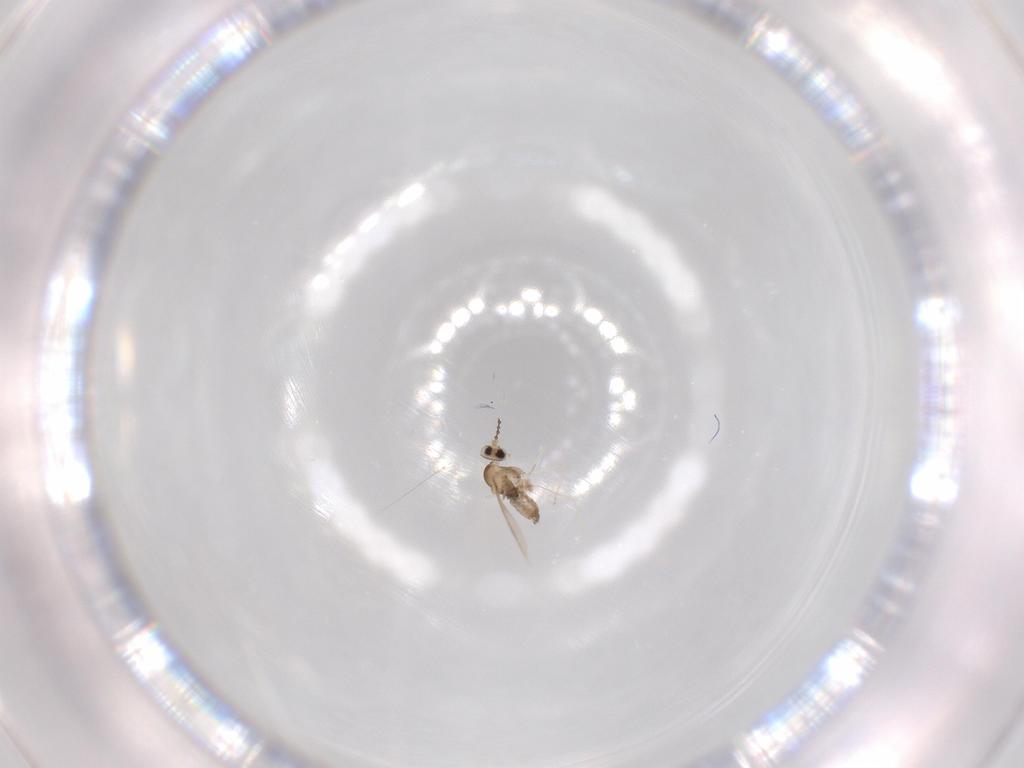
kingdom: Animalia
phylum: Arthropoda
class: Insecta
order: Diptera
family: Cecidomyiidae
